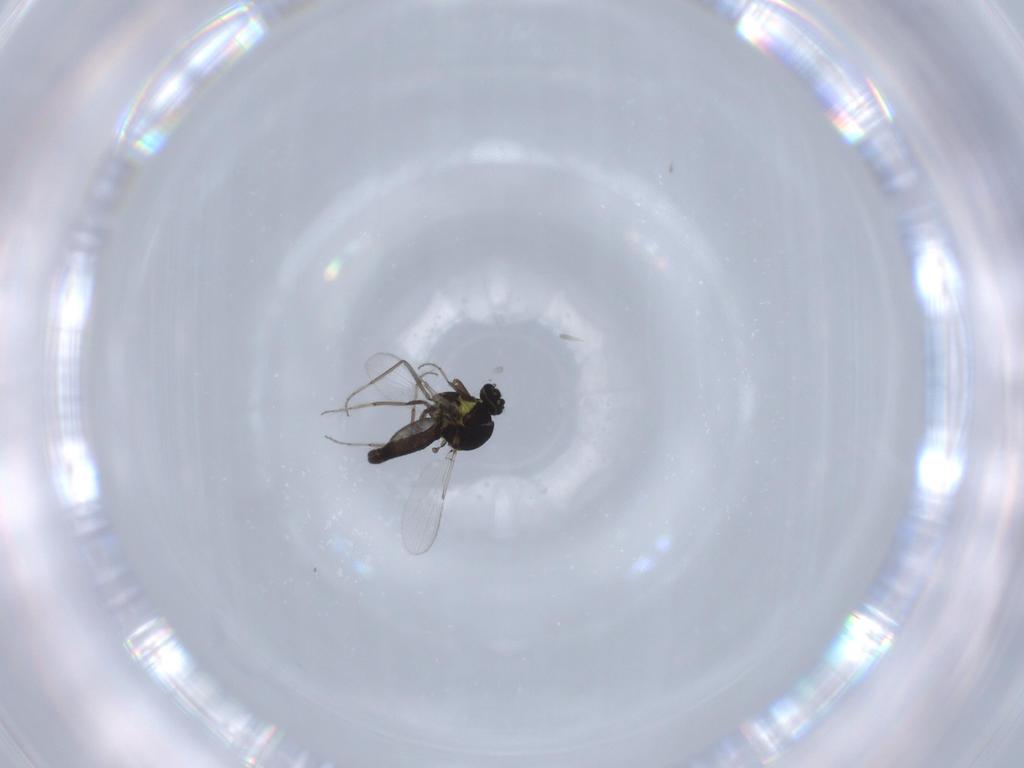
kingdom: Animalia
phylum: Arthropoda
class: Insecta
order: Diptera
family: Ceratopogonidae
